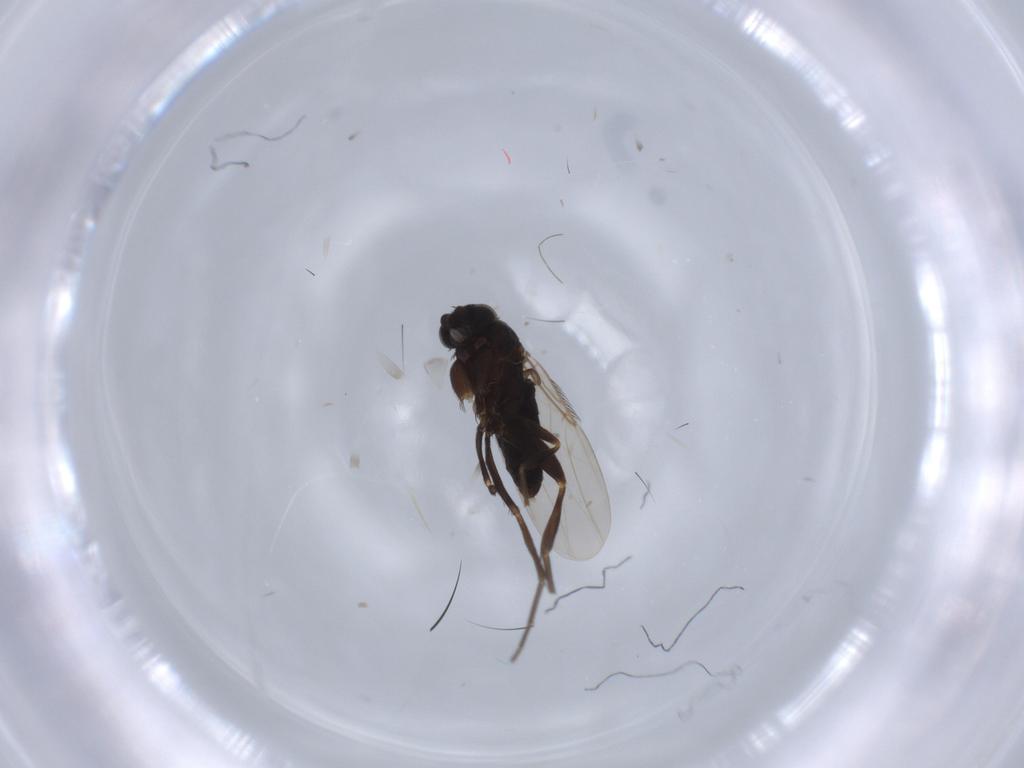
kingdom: Animalia
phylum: Arthropoda
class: Insecta
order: Diptera
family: Phoridae
